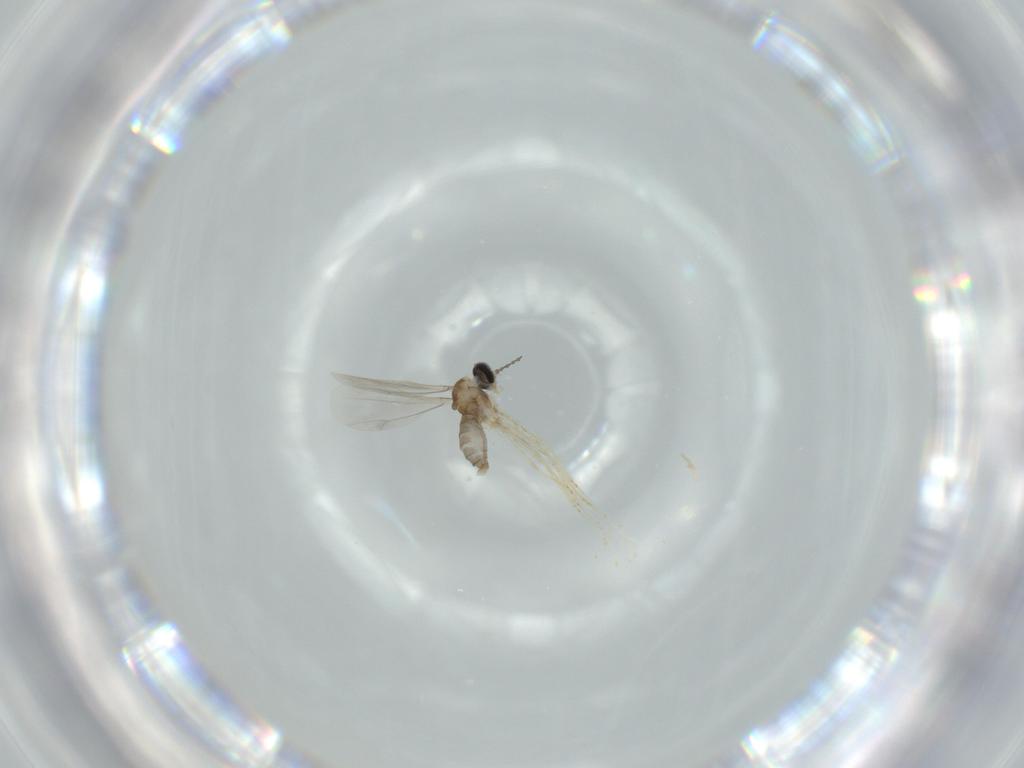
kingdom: Animalia
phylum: Arthropoda
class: Insecta
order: Diptera
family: Cecidomyiidae
